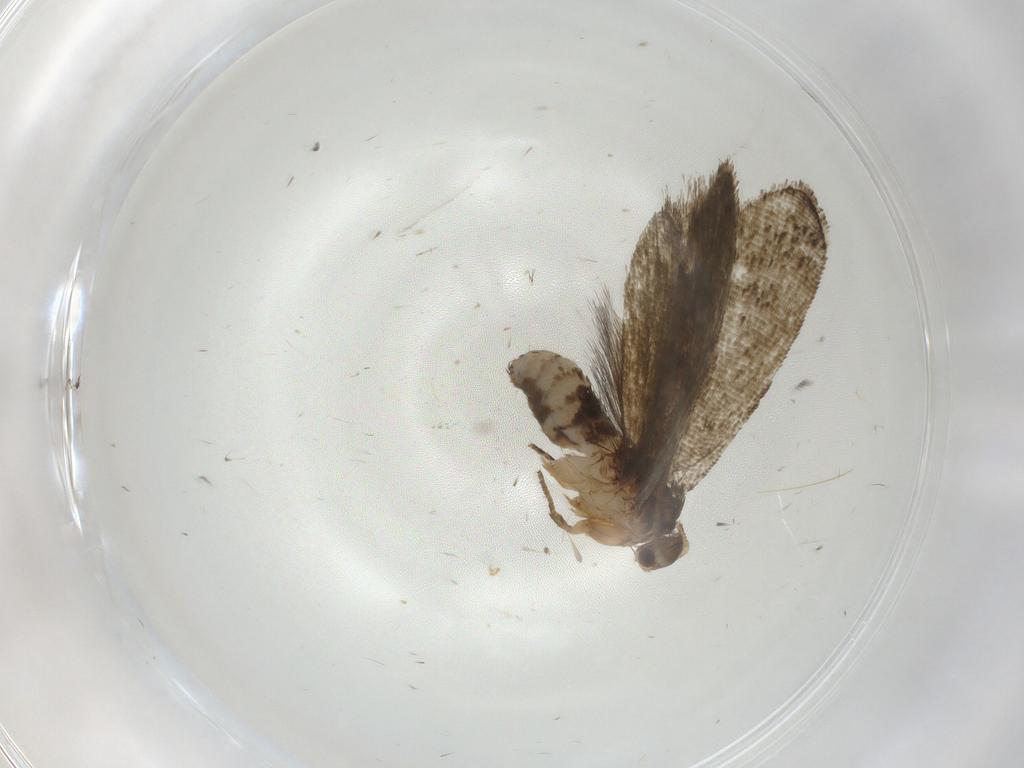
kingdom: Animalia
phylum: Arthropoda
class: Insecta
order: Lepidoptera
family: Crambidae
